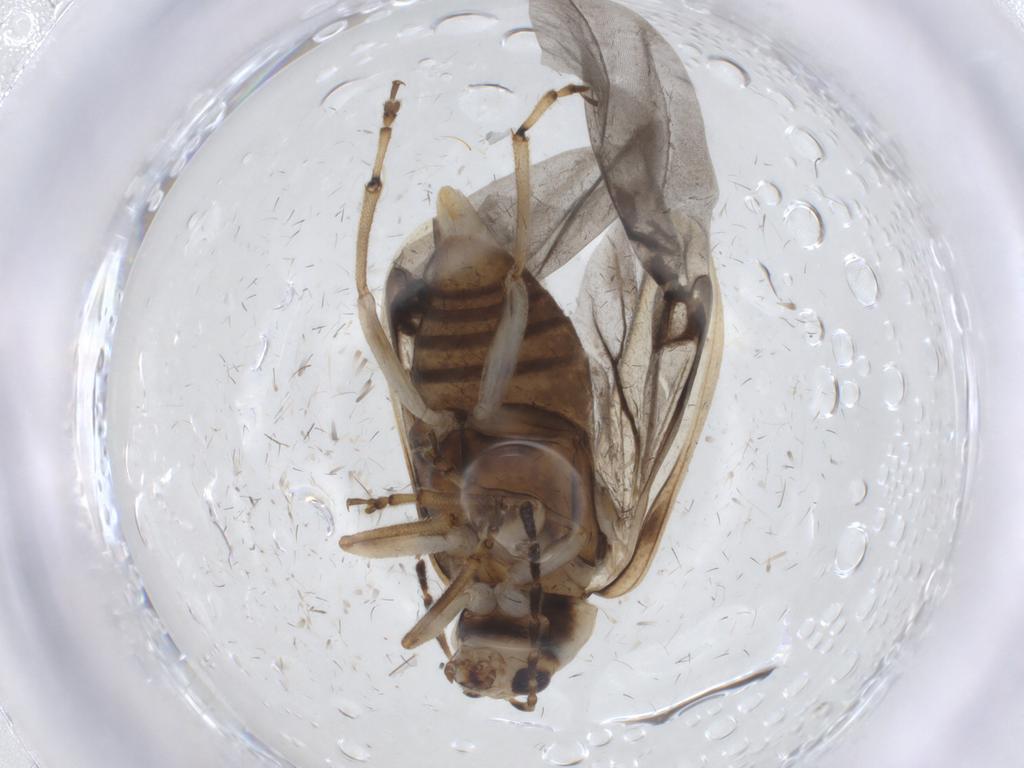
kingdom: Animalia
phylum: Arthropoda
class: Insecta
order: Coleoptera
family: Chrysomelidae
